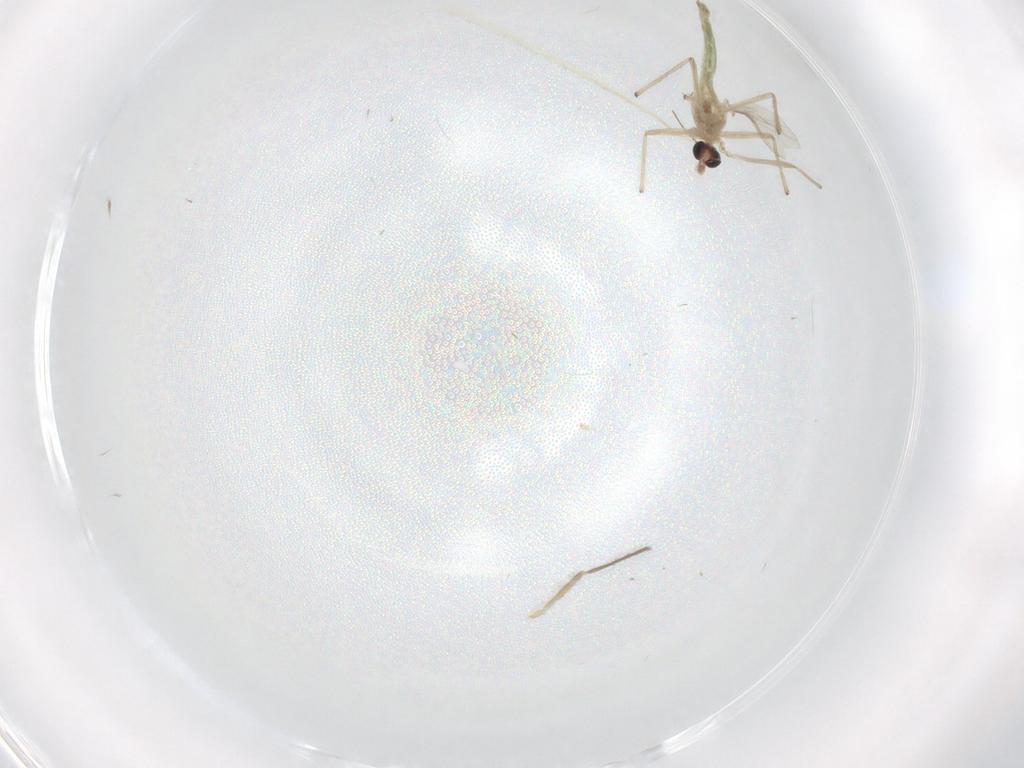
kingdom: Animalia
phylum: Arthropoda
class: Insecta
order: Diptera
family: Chironomidae
